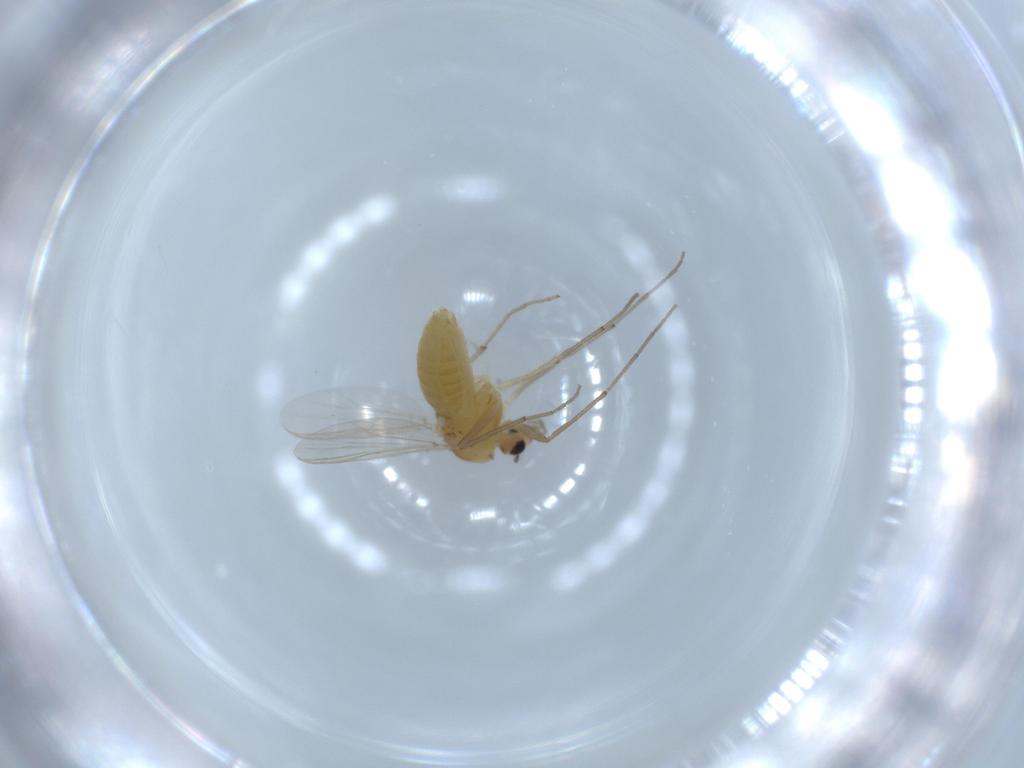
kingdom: Animalia
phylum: Arthropoda
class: Insecta
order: Diptera
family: Chironomidae
